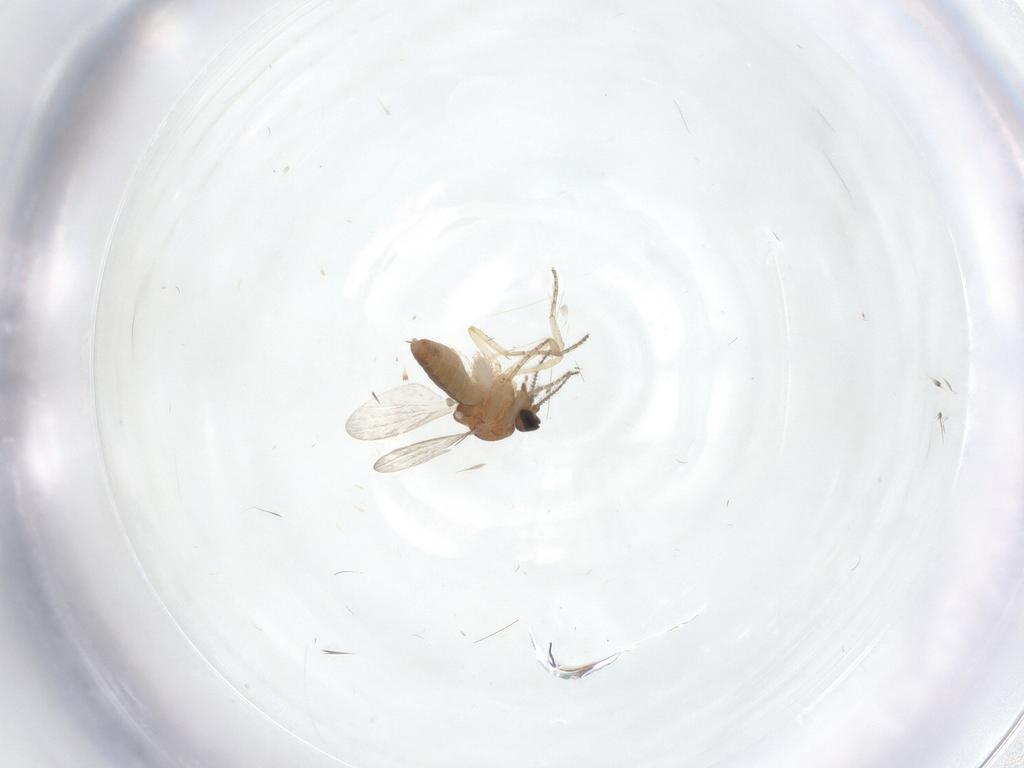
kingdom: Animalia
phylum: Arthropoda
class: Insecta
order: Diptera
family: Ceratopogonidae
